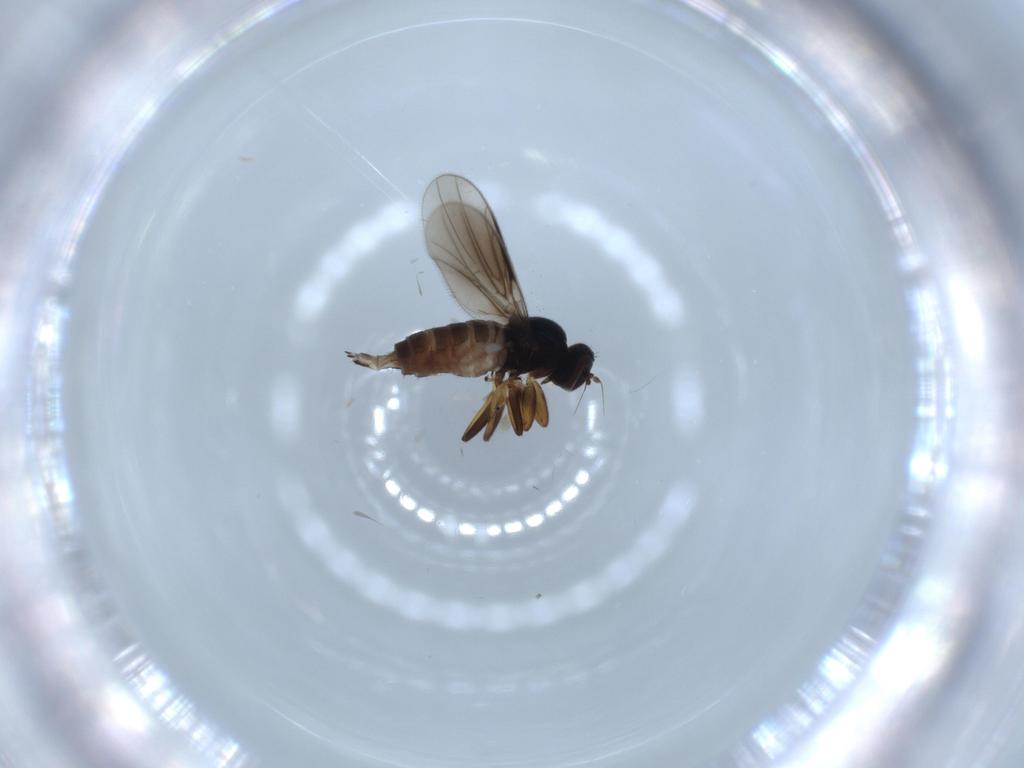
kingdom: Animalia
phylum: Arthropoda
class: Insecta
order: Diptera
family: Hybotidae
